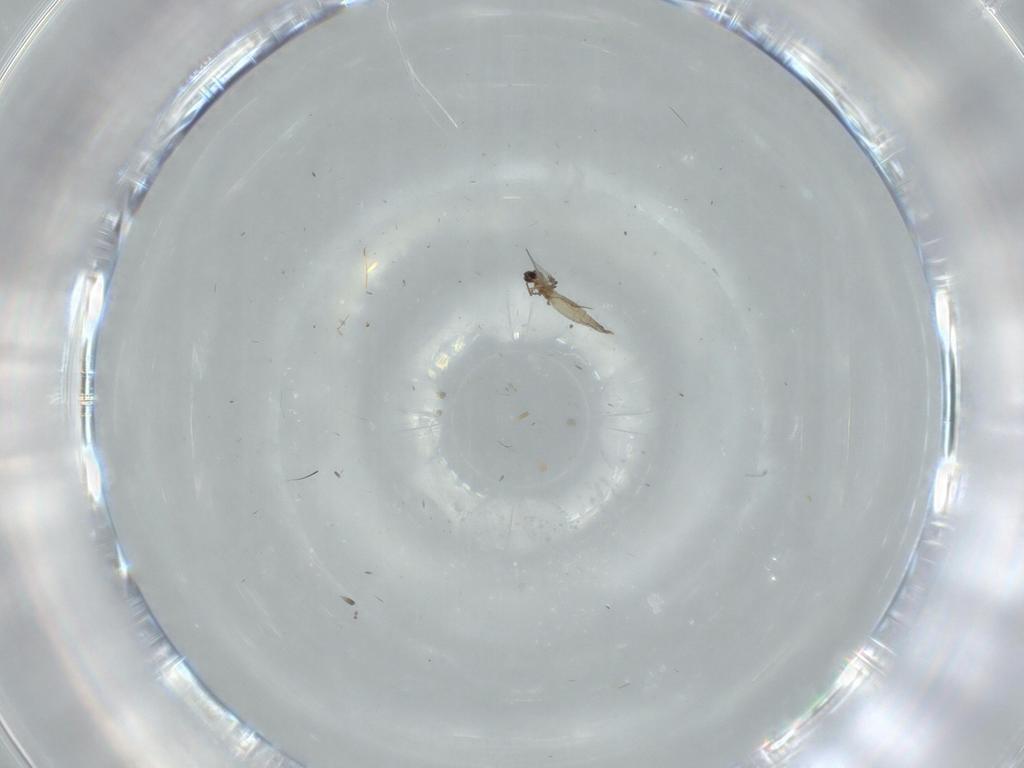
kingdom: Animalia
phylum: Arthropoda
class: Insecta
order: Diptera
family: Cecidomyiidae
